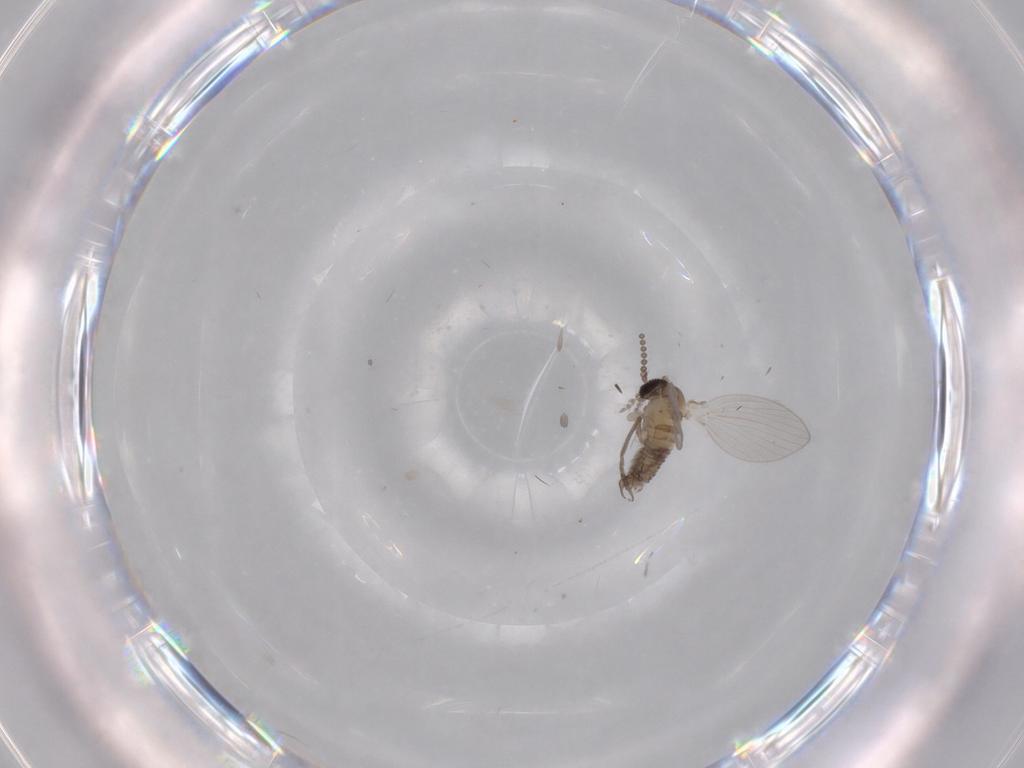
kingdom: Animalia
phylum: Arthropoda
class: Insecta
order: Diptera
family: Psychodidae
